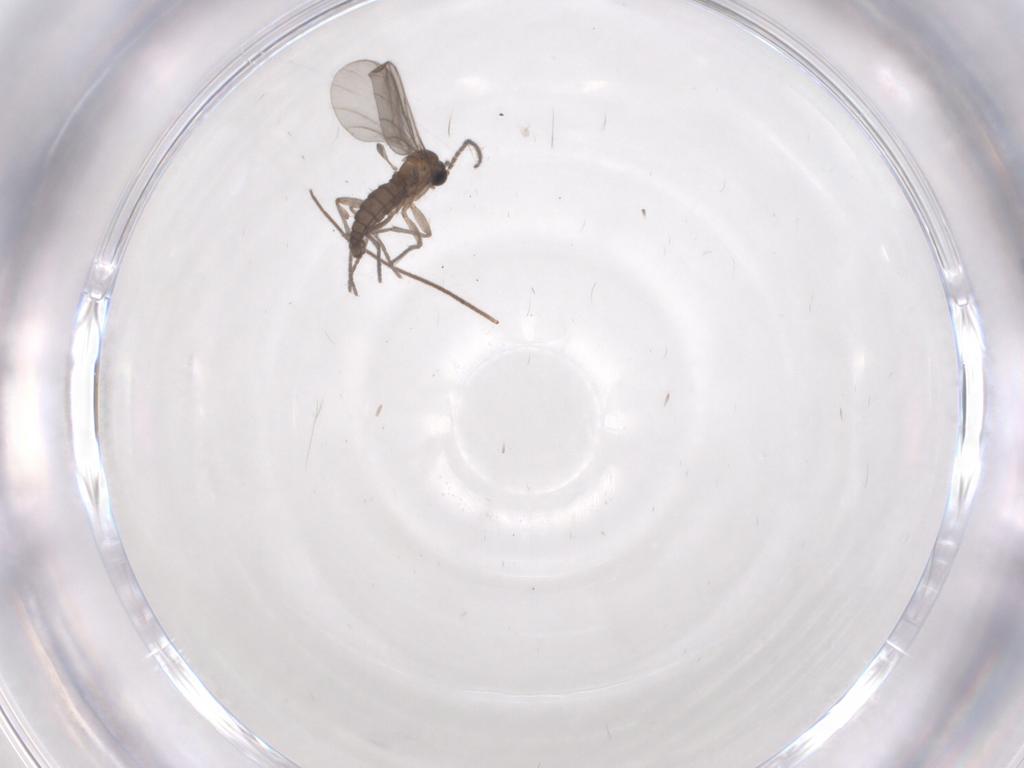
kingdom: Animalia
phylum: Arthropoda
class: Insecta
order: Diptera
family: Sciaridae
